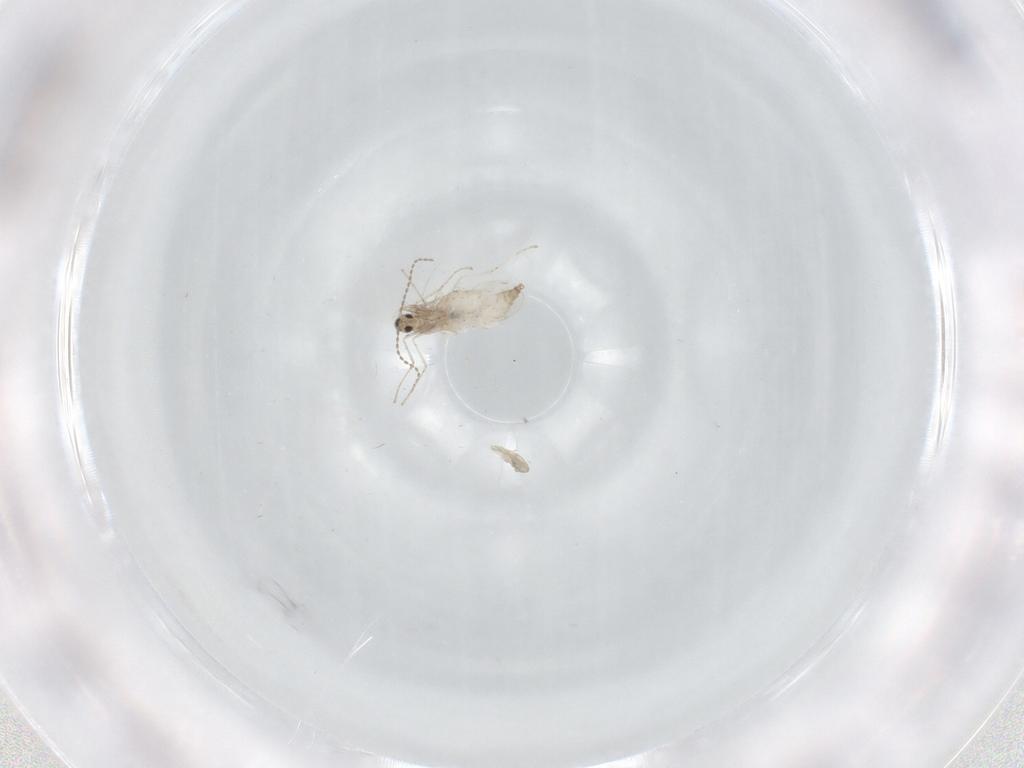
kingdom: Animalia
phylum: Arthropoda
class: Insecta
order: Diptera
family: Cecidomyiidae
